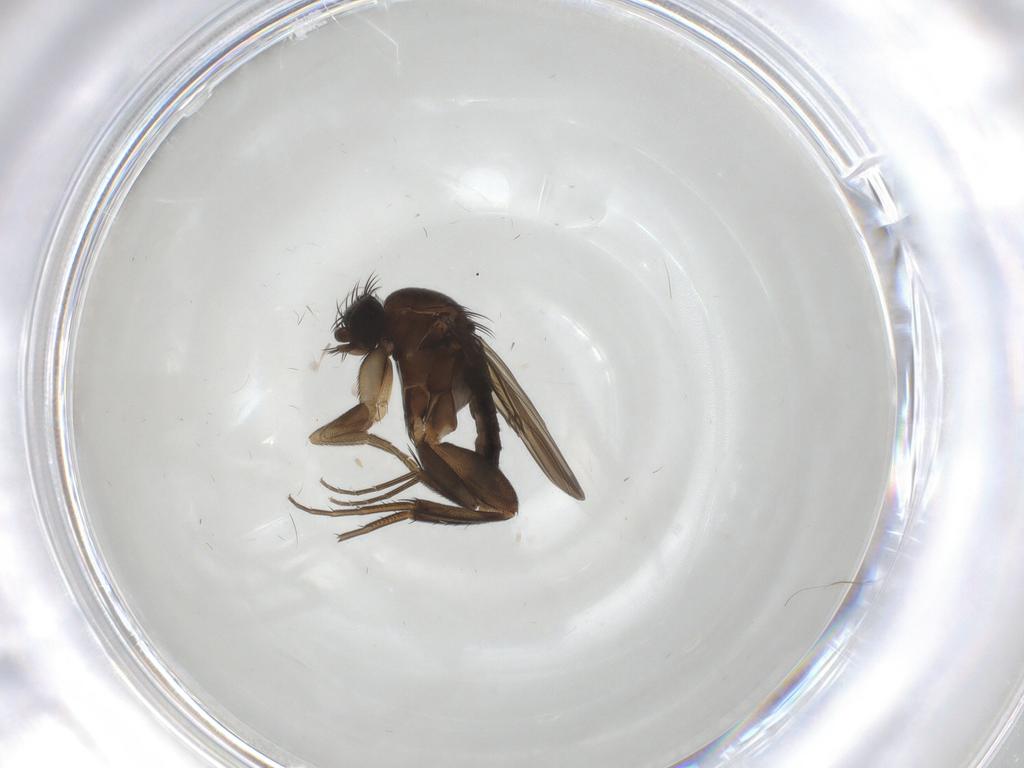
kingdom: Animalia
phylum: Arthropoda
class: Insecta
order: Diptera
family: Phoridae
